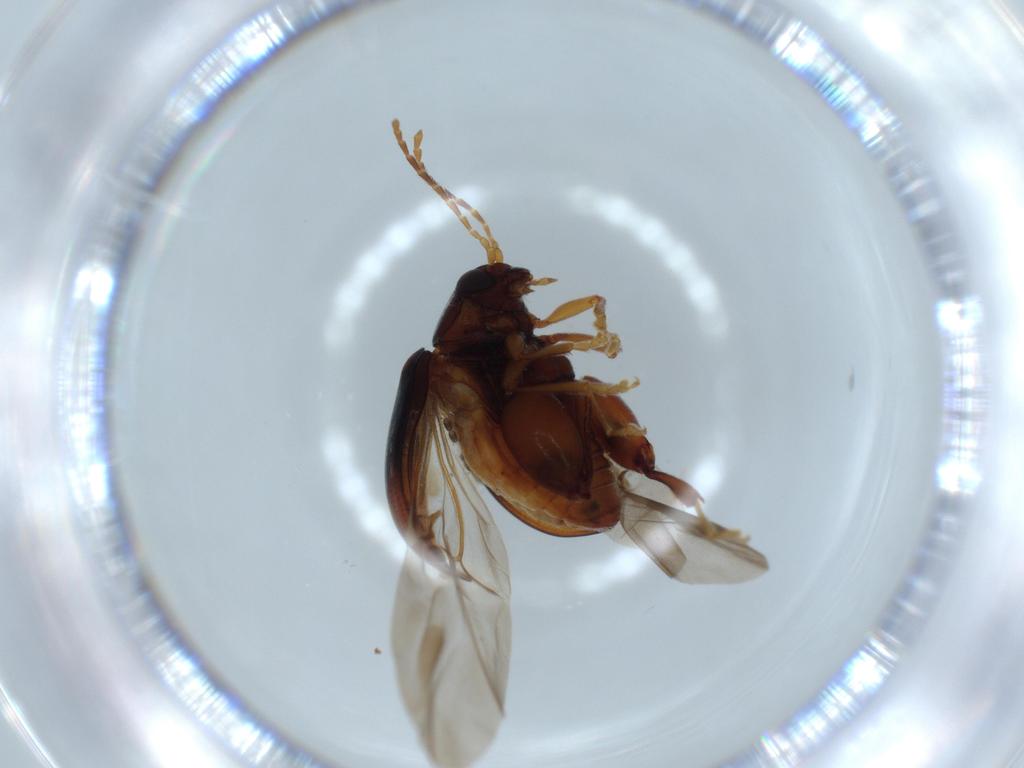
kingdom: Animalia
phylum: Arthropoda
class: Insecta
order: Coleoptera
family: Chrysomelidae
